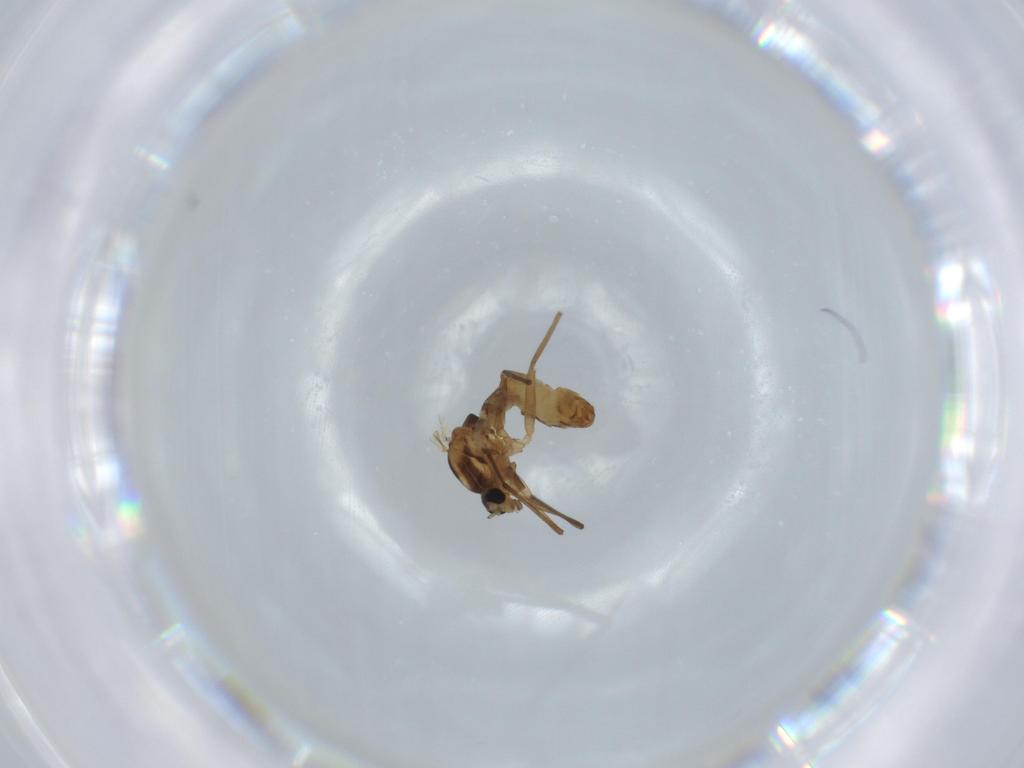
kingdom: Animalia
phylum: Arthropoda
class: Insecta
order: Diptera
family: Chironomidae
